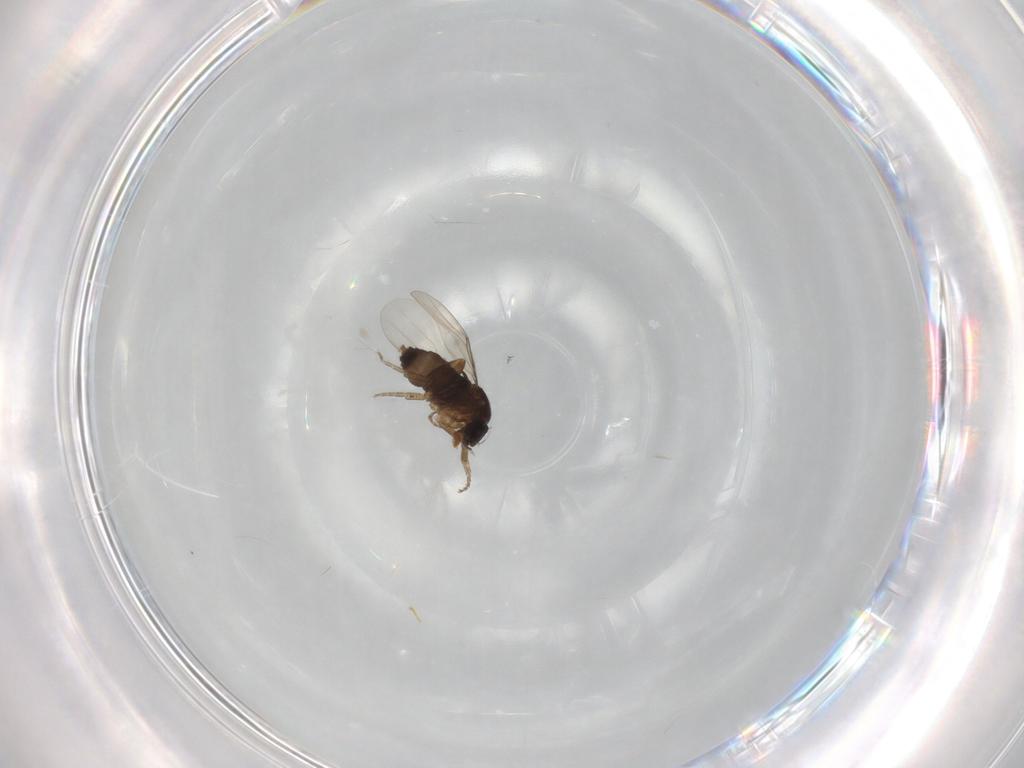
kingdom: Animalia
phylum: Arthropoda
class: Insecta
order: Diptera
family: Phoridae
